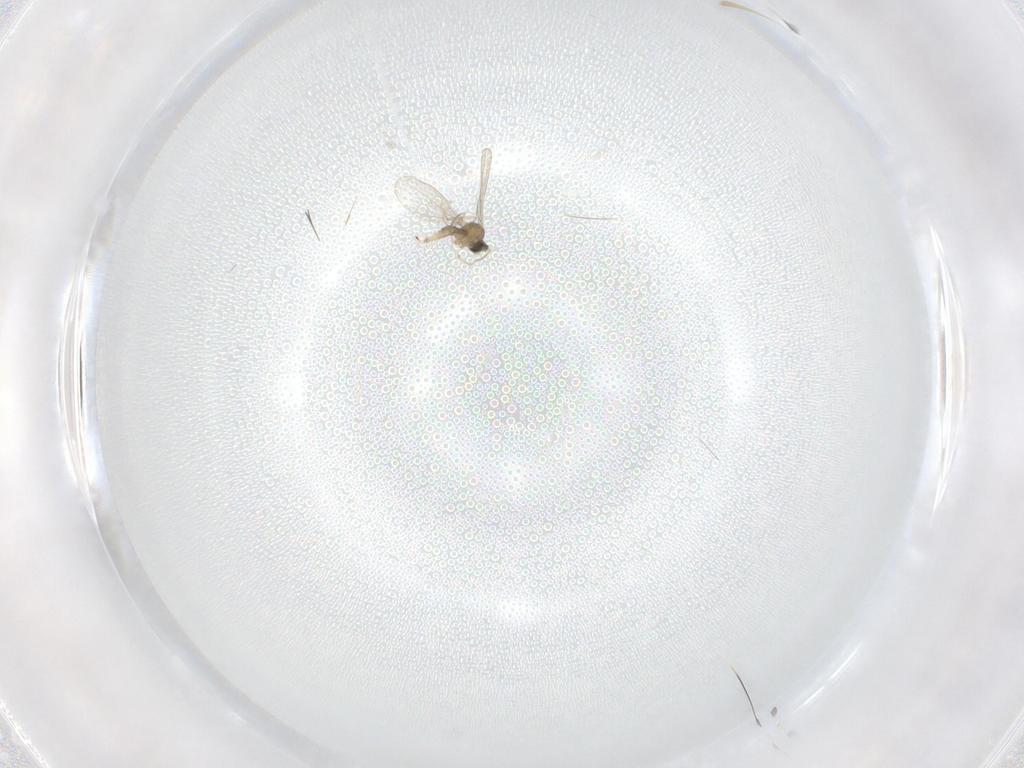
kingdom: Animalia
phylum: Arthropoda
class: Insecta
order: Diptera
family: Cecidomyiidae
